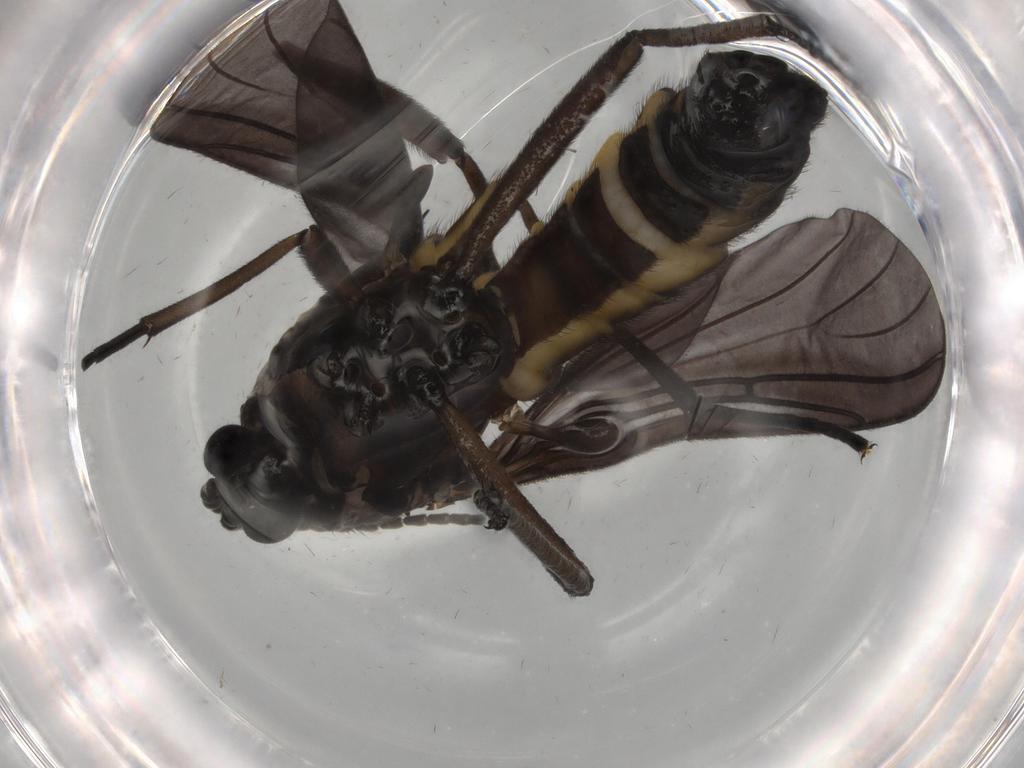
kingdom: Animalia
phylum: Arthropoda
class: Insecta
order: Diptera
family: Sciaridae
